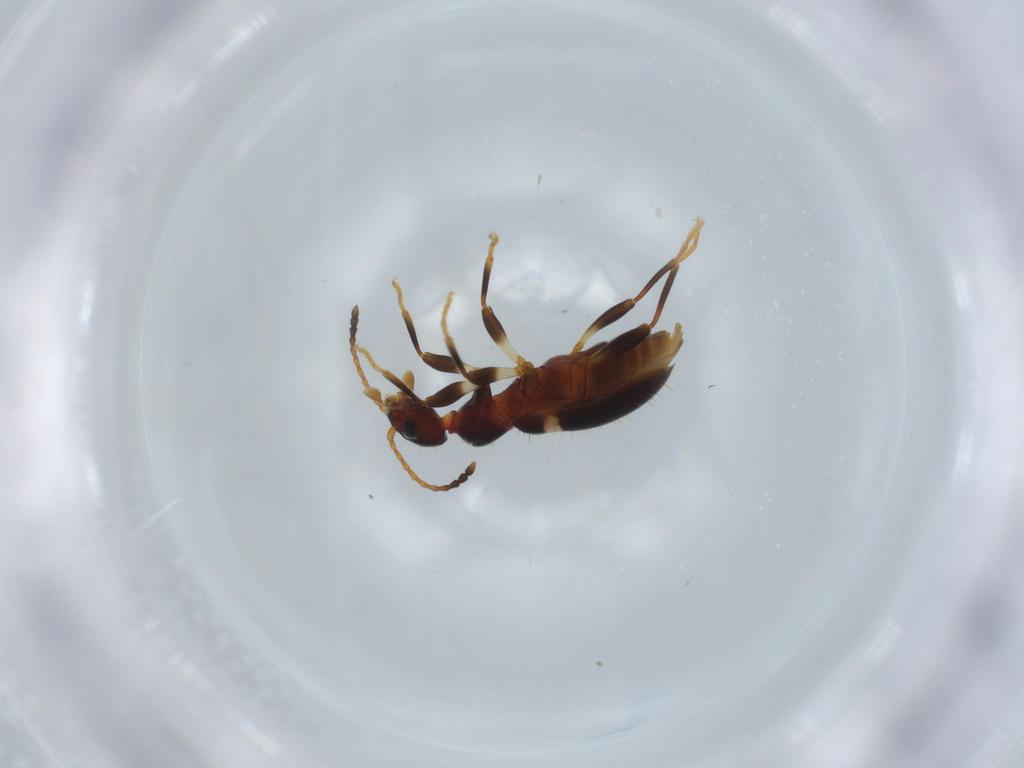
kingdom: Animalia
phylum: Arthropoda
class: Insecta
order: Coleoptera
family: Anthicidae
